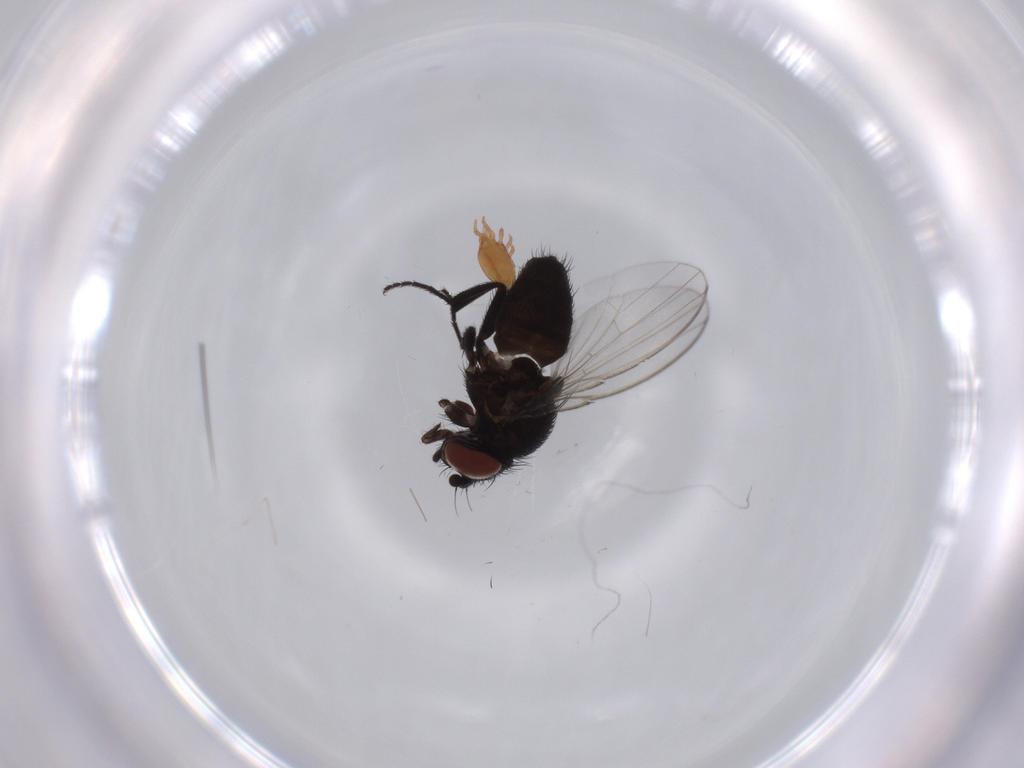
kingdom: Animalia
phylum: Arthropoda
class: Insecta
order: Diptera
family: Milichiidae
